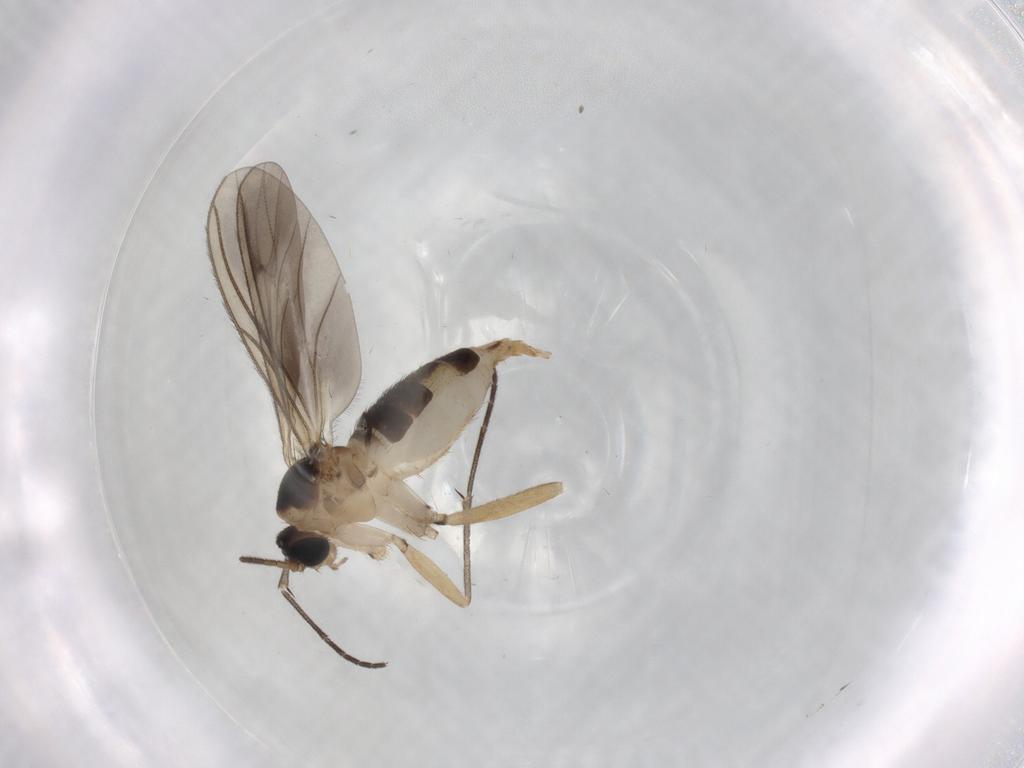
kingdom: Animalia
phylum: Arthropoda
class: Insecta
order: Diptera
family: Sciaridae
